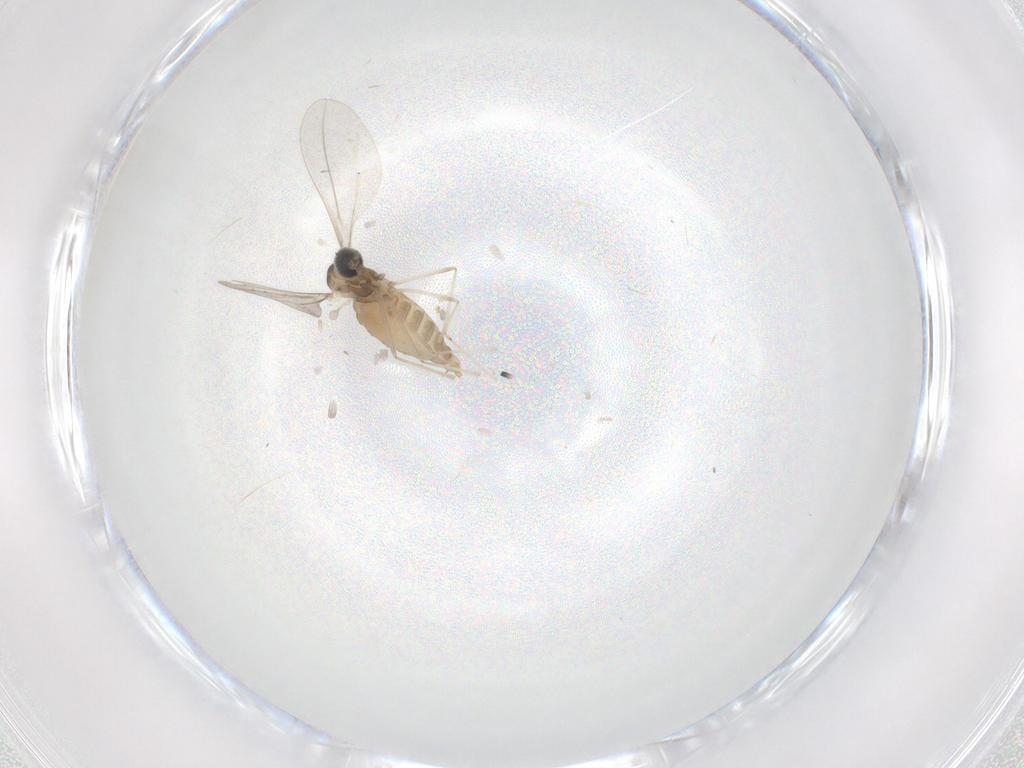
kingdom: Animalia
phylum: Arthropoda
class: Insecta
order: Diptera
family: Cecidomyiidae
